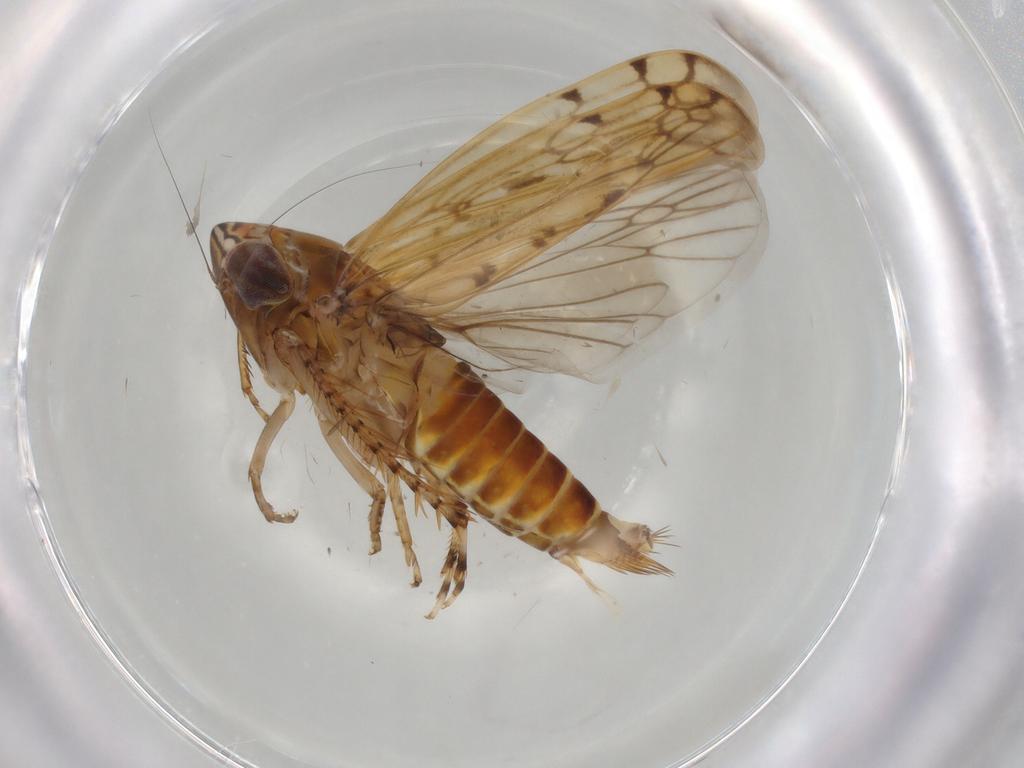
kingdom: Animalia
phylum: Arthropoda
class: Insecta
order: Hemiptera
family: Cicadellidae
